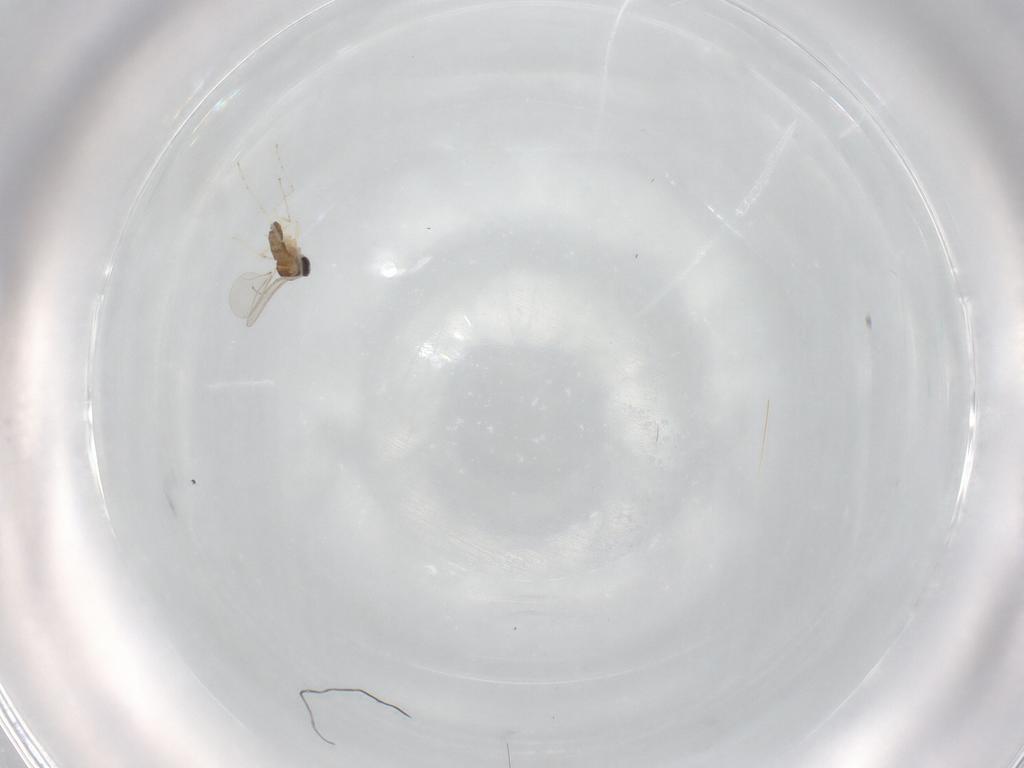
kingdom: Animalia
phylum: Arthropoda
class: Insecta
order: Diptera
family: Cecidomyiidae
